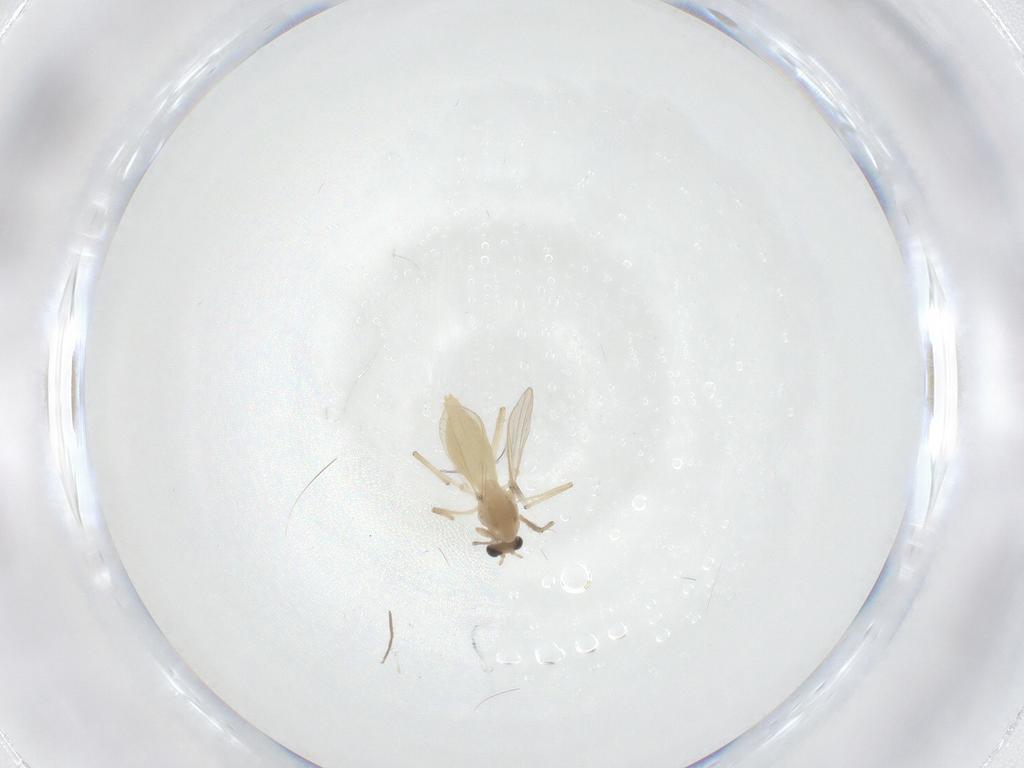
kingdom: Animalia
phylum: Arthropoda
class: Insecta
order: Diptera
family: Chironomidae
